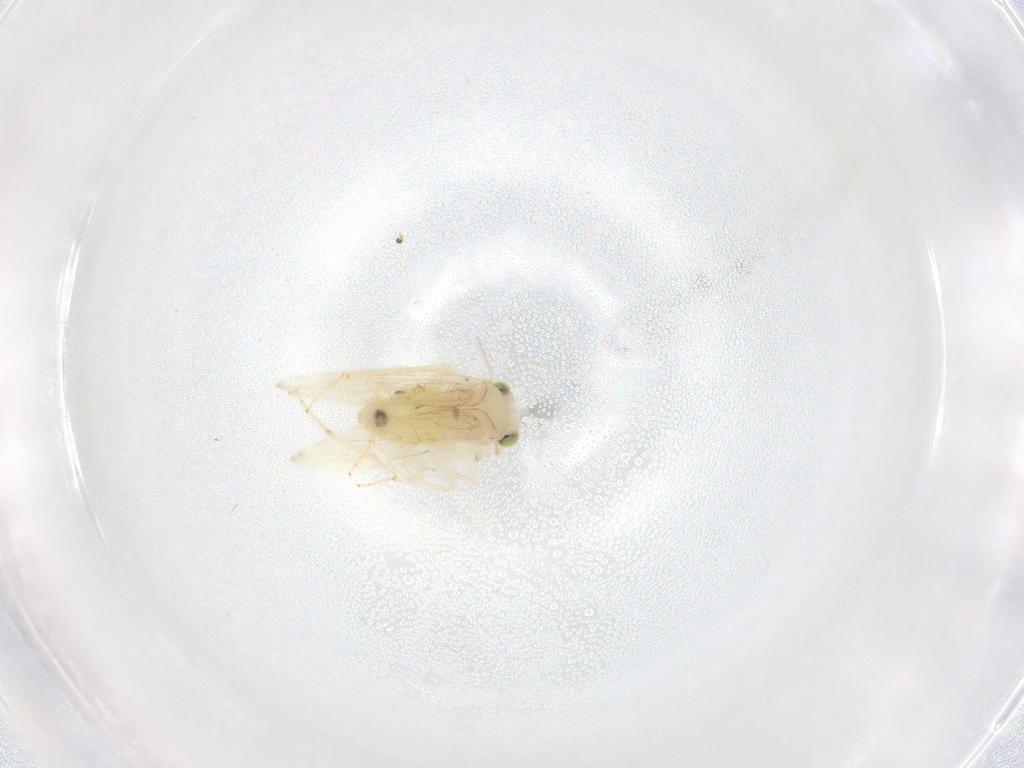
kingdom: Animalia
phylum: Arthropoda
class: Insecta
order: Psocodea
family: Lepidopsocidae
